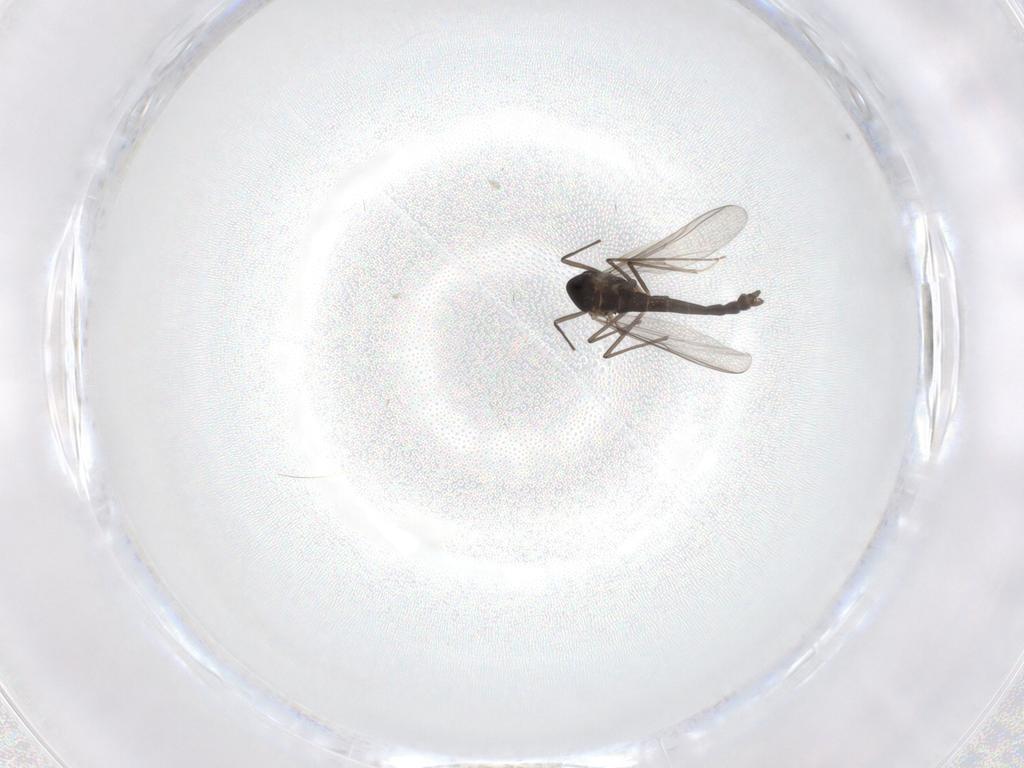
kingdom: Animalia
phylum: Arthropoda
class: Insecta
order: Diptera
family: Chironomidae
